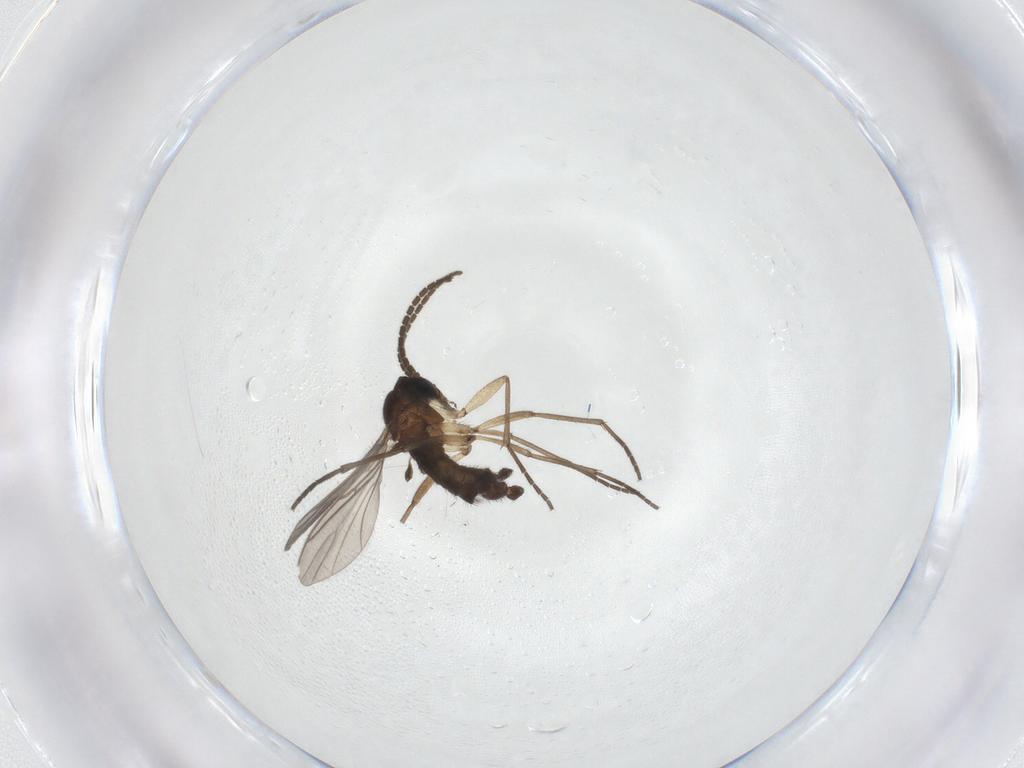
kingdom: Animalia
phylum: Arthropoda
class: Insecta
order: Diptera
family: Sciaridae
